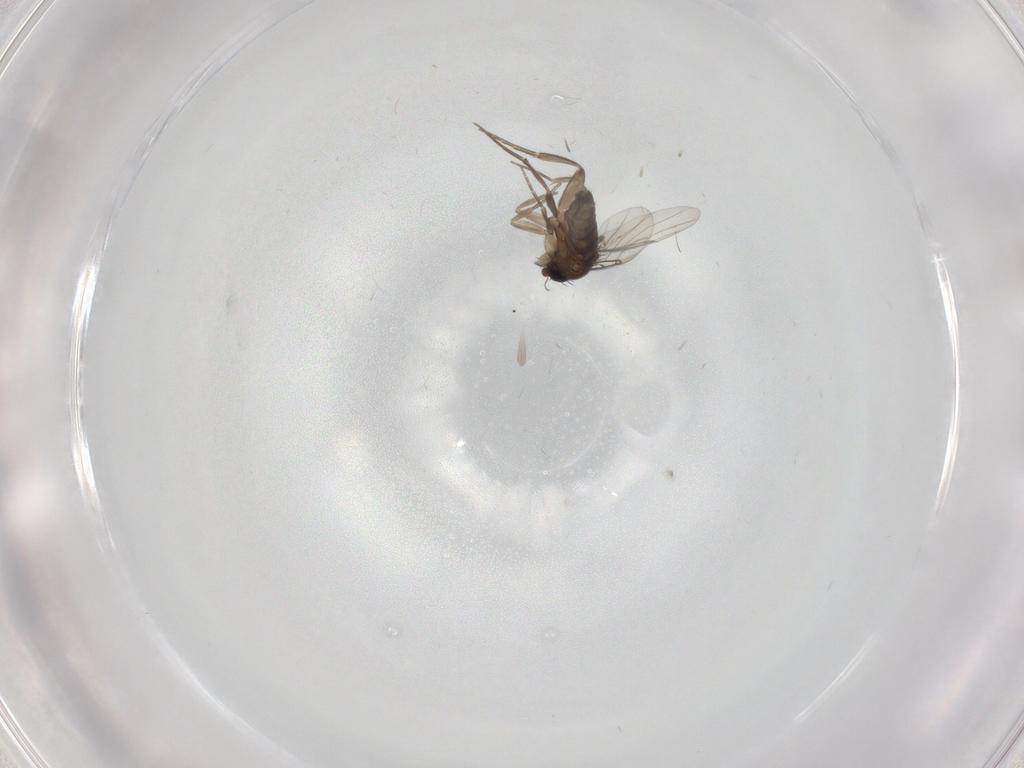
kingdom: Animalia
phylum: Arthropoda
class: Insecta
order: Diptera
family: Phoridae
